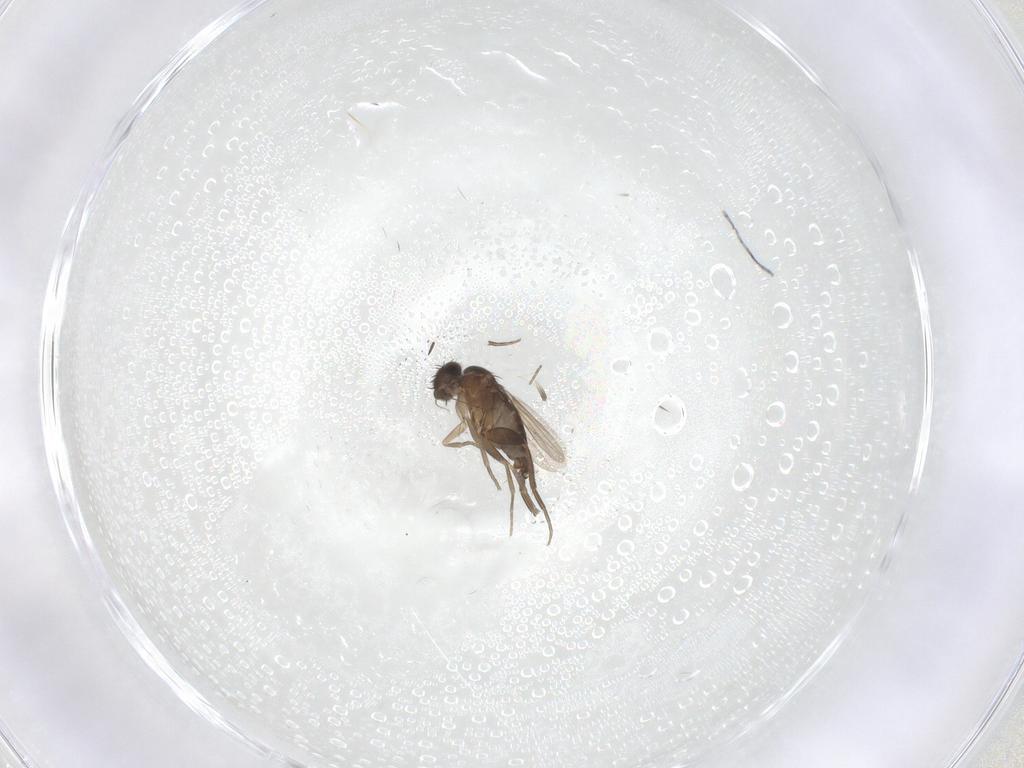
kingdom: Animalia
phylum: Arthropoda
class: Insecta
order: Diptera
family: Phoridae
